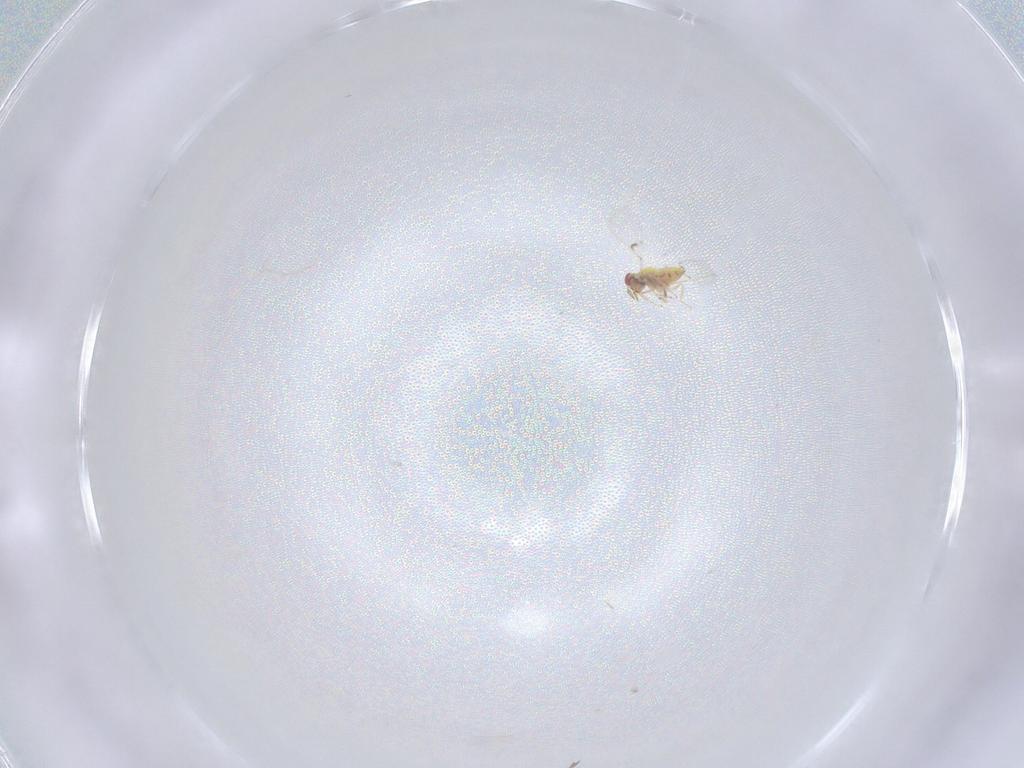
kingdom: Animalia
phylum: Arthropoda
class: Insecta
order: Hymenoptera
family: Trichogrammatidae
